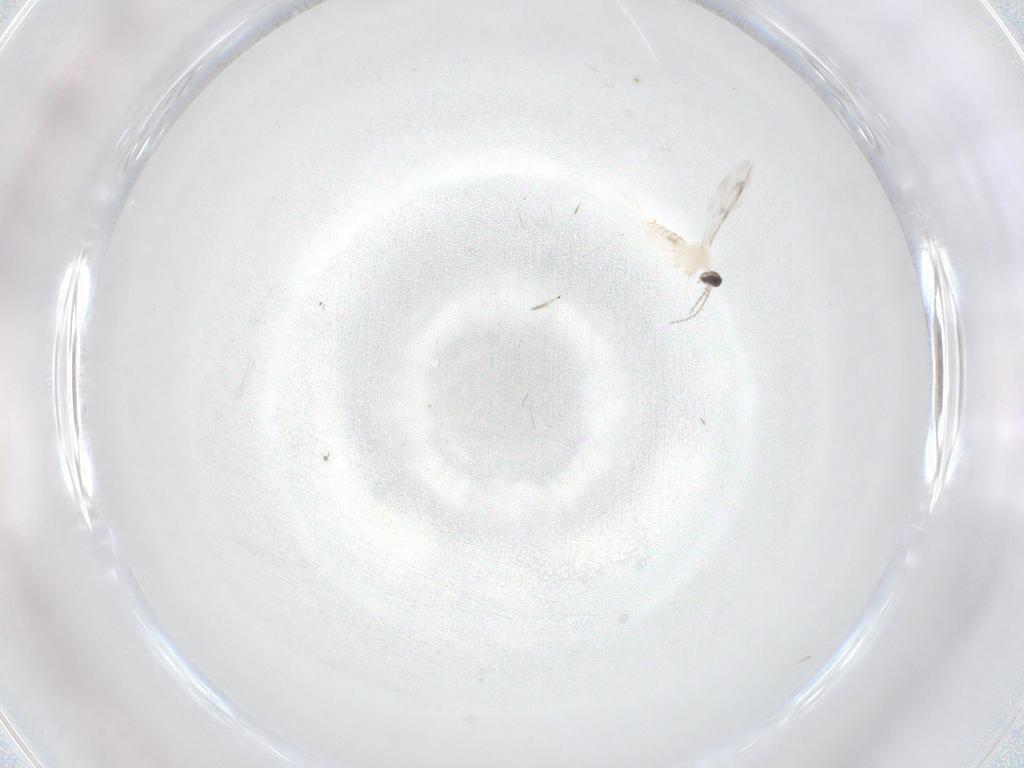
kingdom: Animalia
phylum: Arthropoda
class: Insecta
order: Diptera
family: Cecidomyiidae
